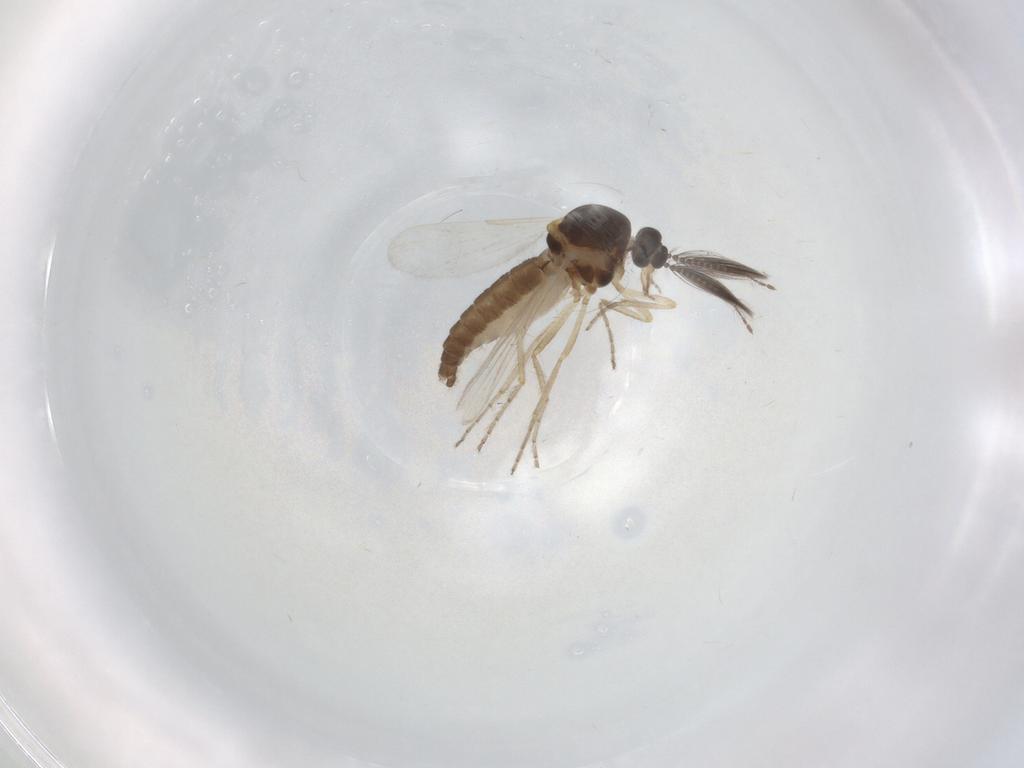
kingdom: Animalia
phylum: Arthropoda
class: Insecta
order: Diptera
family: Ceratopogonidae
